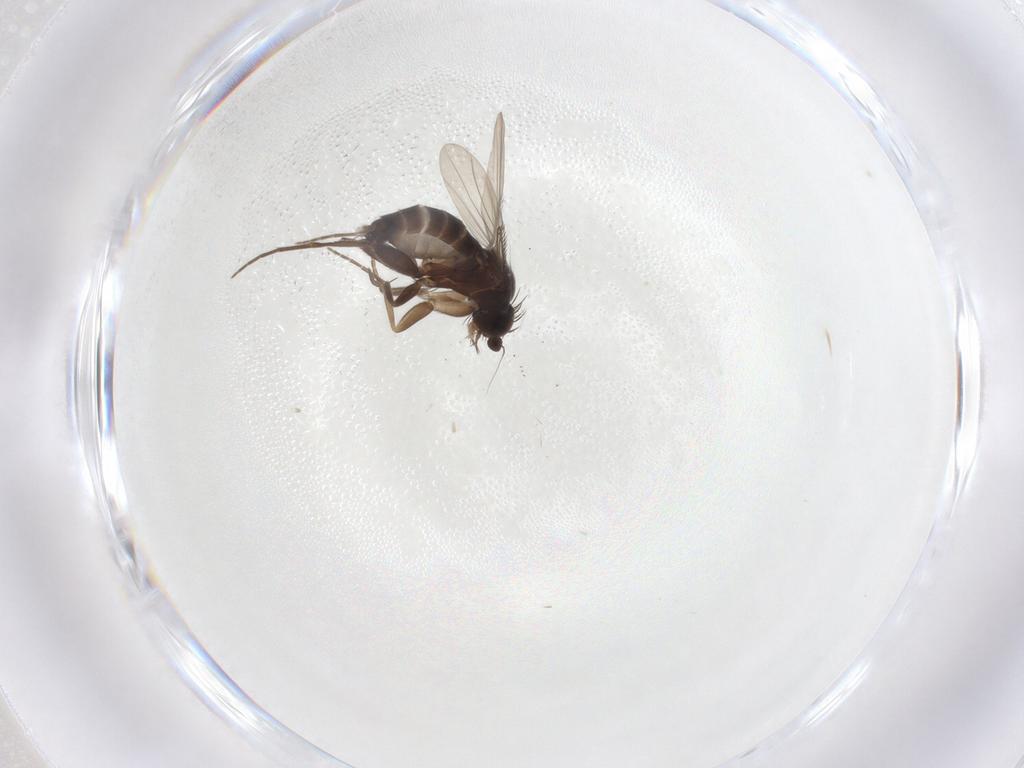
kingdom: Animalia
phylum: Arthropoda
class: Insecta
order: Diptera
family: Phoridae
